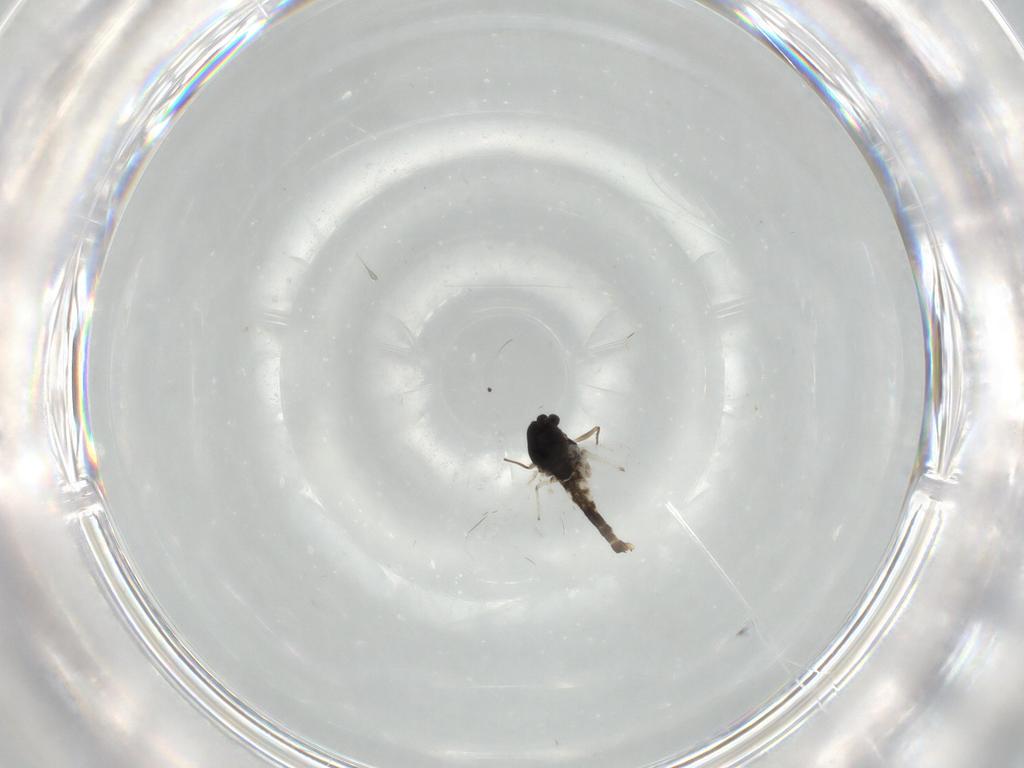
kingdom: Animalia
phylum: Arthropoda
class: Insecta
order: Diptera
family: Chironomidae
